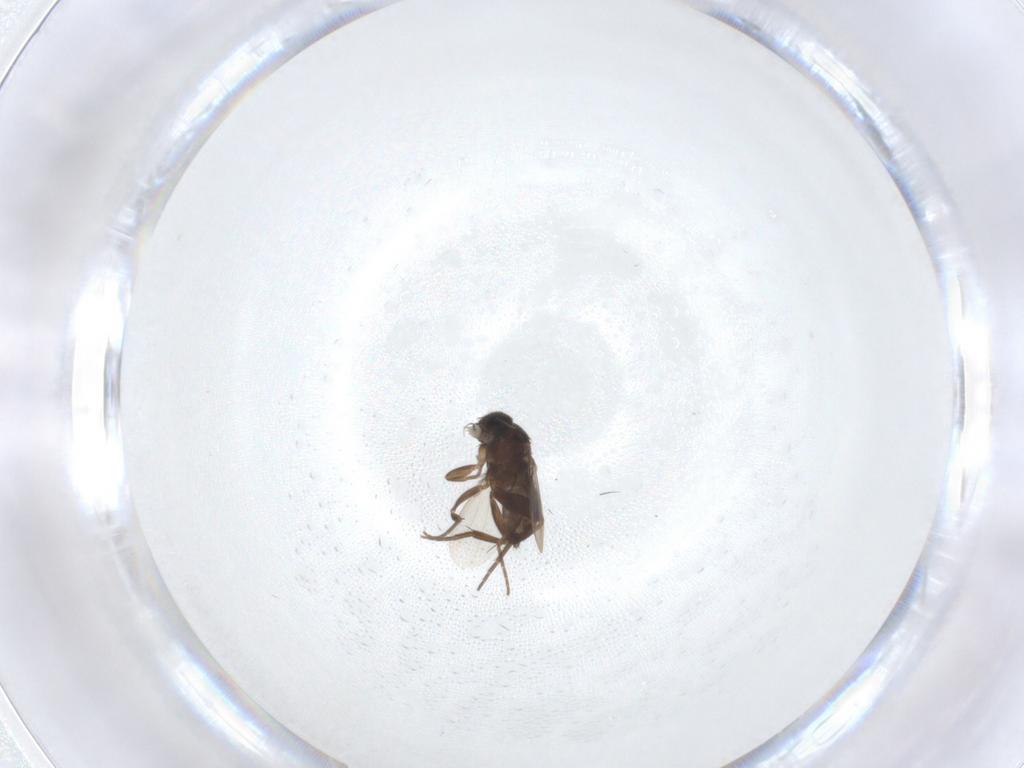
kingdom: Animalia
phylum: Arthropoda
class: Insecta
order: Diptera
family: Phoridae
